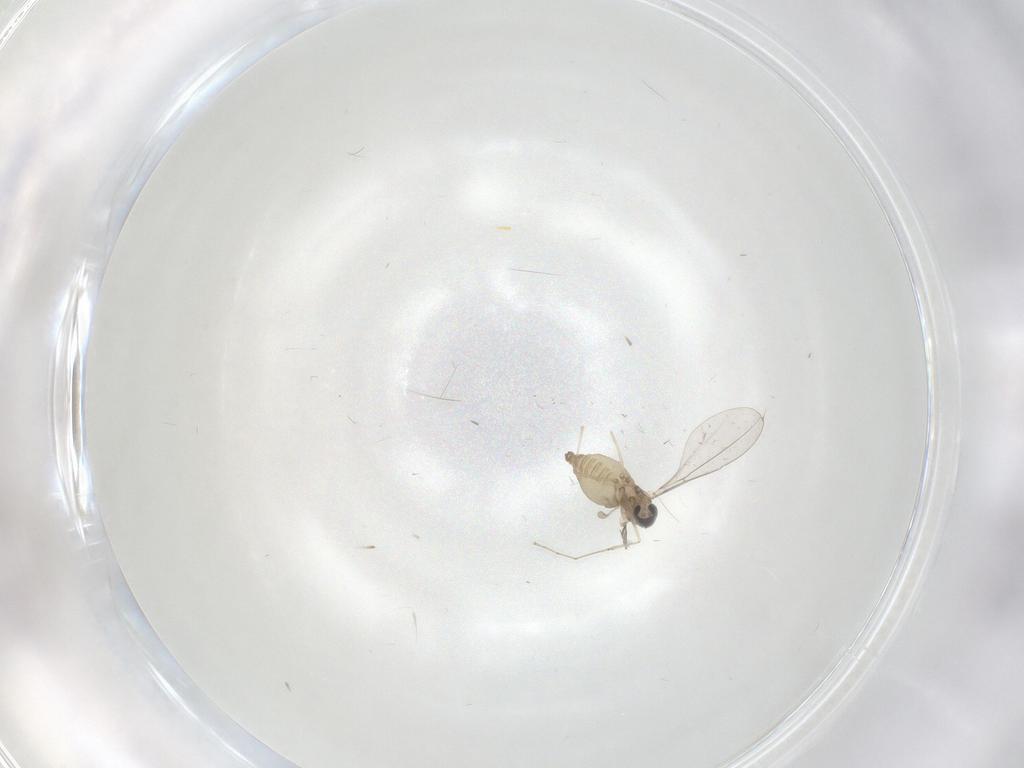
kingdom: Animalia
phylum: Arthropoda
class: Insecta
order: Diptera
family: Cecidomyiidae
